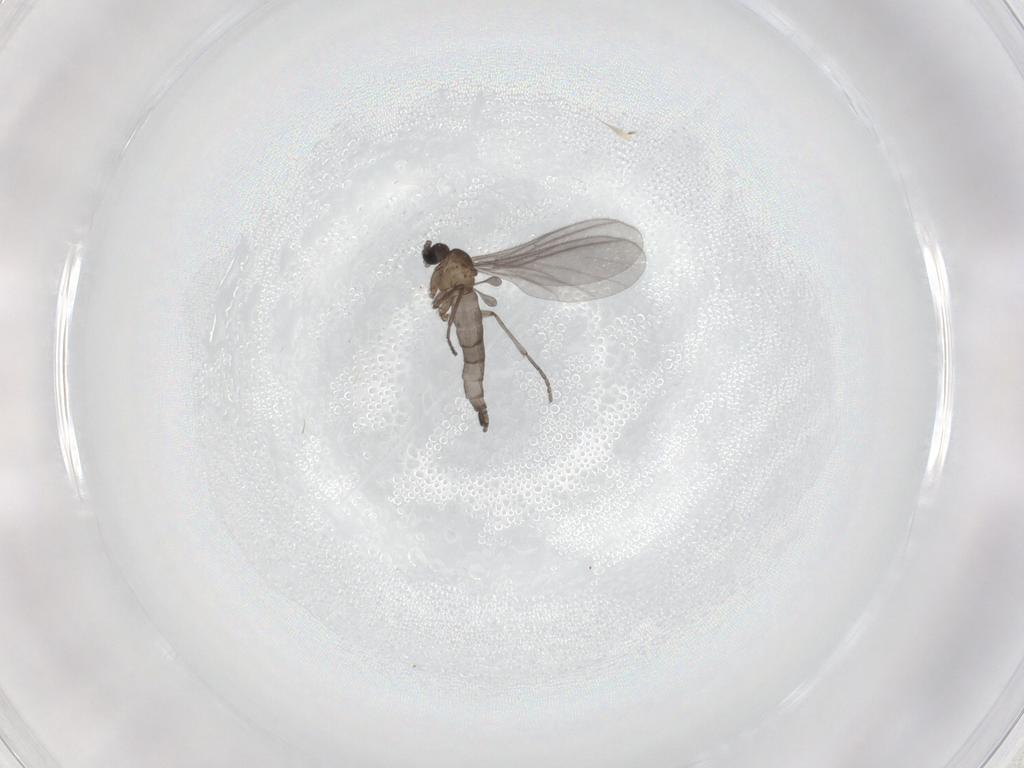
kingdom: Animalia
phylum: Arthropoda
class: Insecta
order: Diptera
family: Sciaridae
